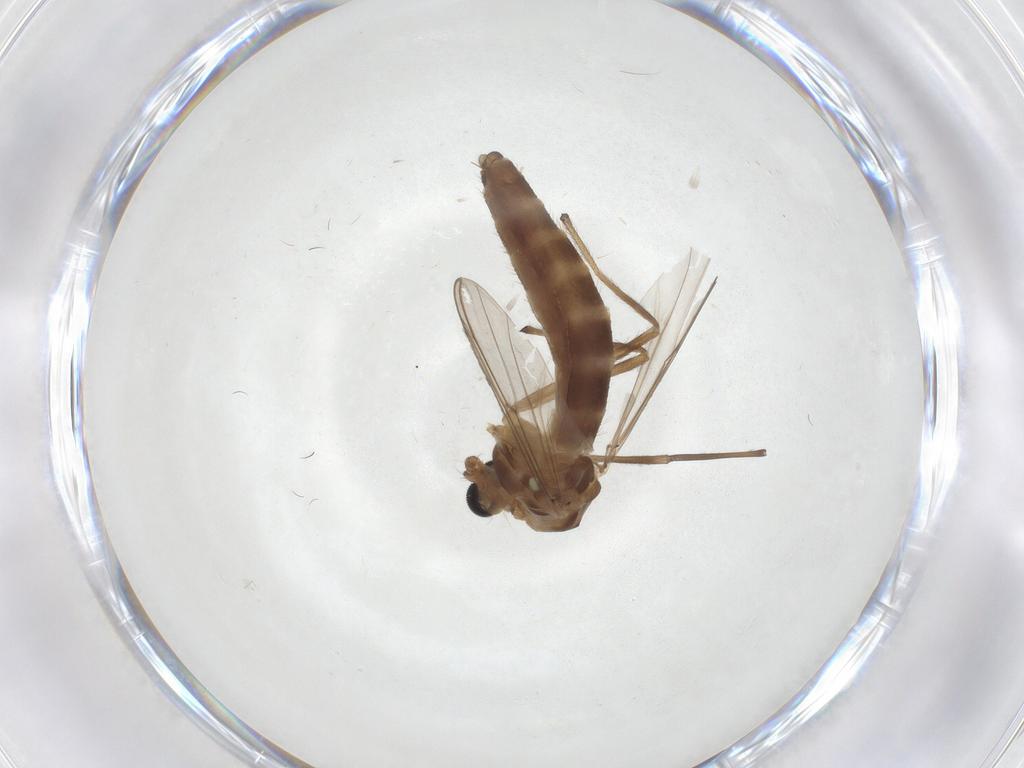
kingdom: Animalia
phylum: Arthropoda
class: Insecta
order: Diptera
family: Chironomidae
